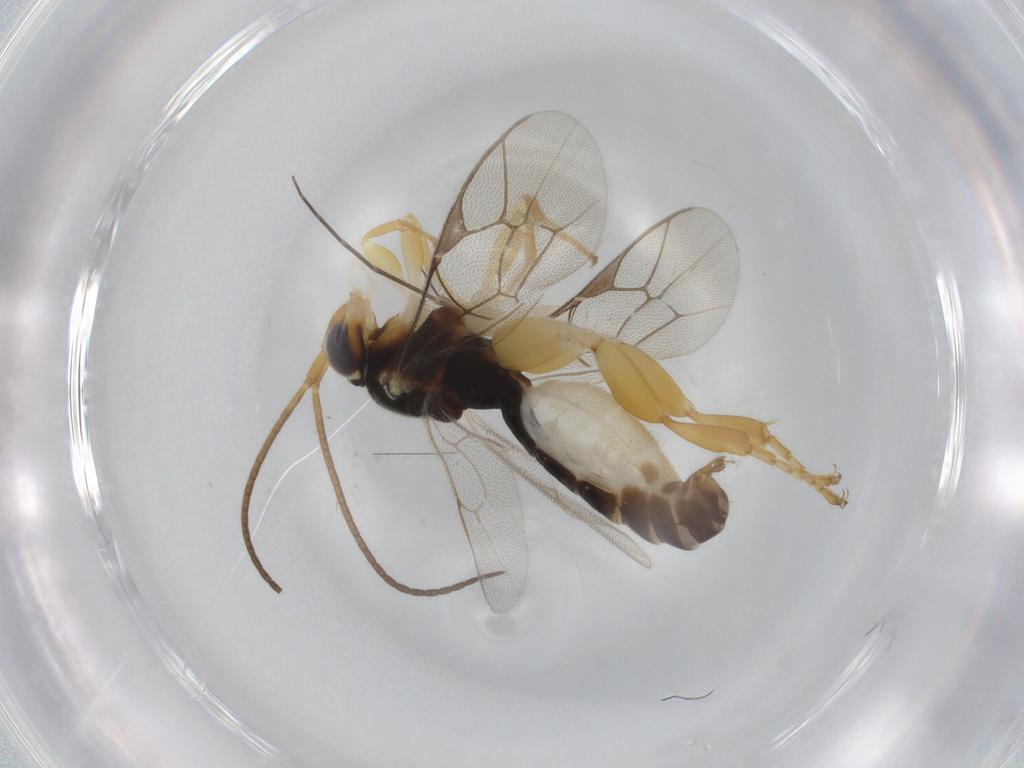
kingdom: Animalia
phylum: Arthropoda
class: Insecta
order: Hymenoptera
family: Ichneumonidae
